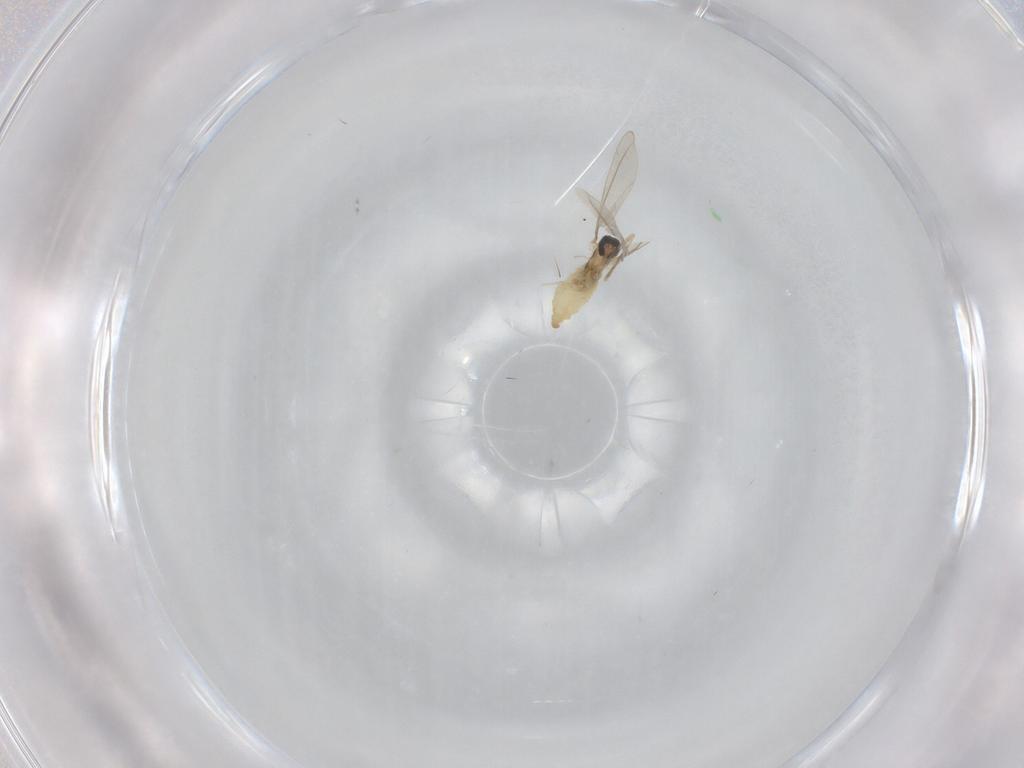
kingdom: Animalia
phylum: Arthropoda
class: Insecta
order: Diptera
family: Cecidomyiidae
